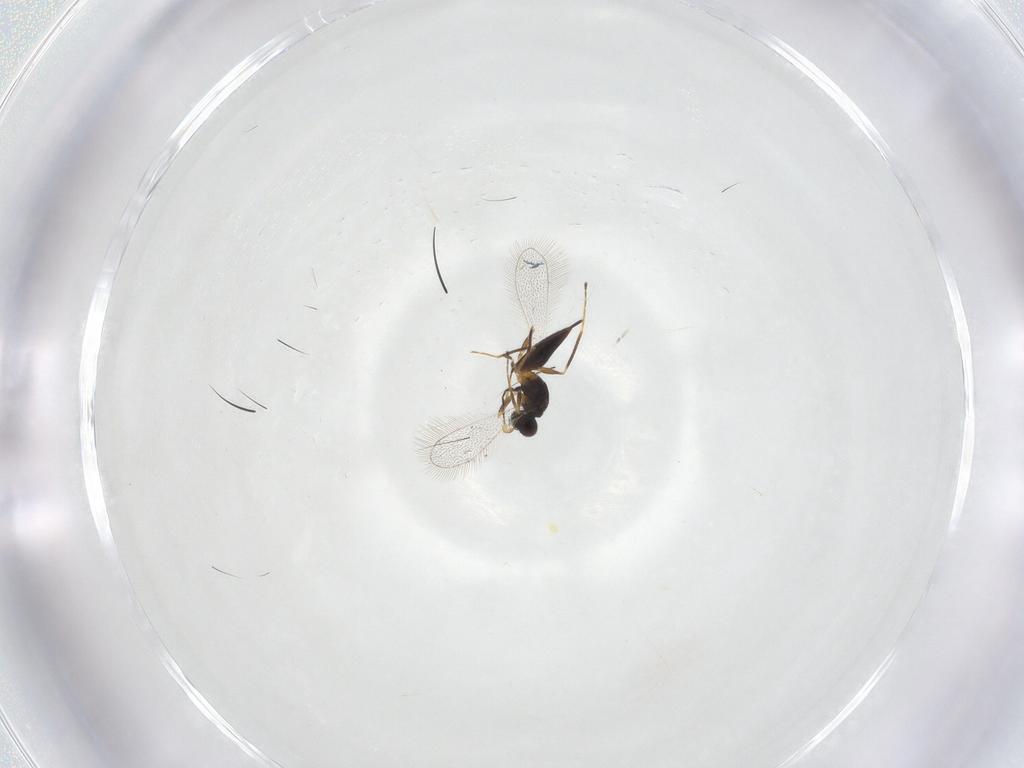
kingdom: Animalia
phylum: Arthropoda
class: Insecta
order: Hymenoptera
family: Mymaridae
